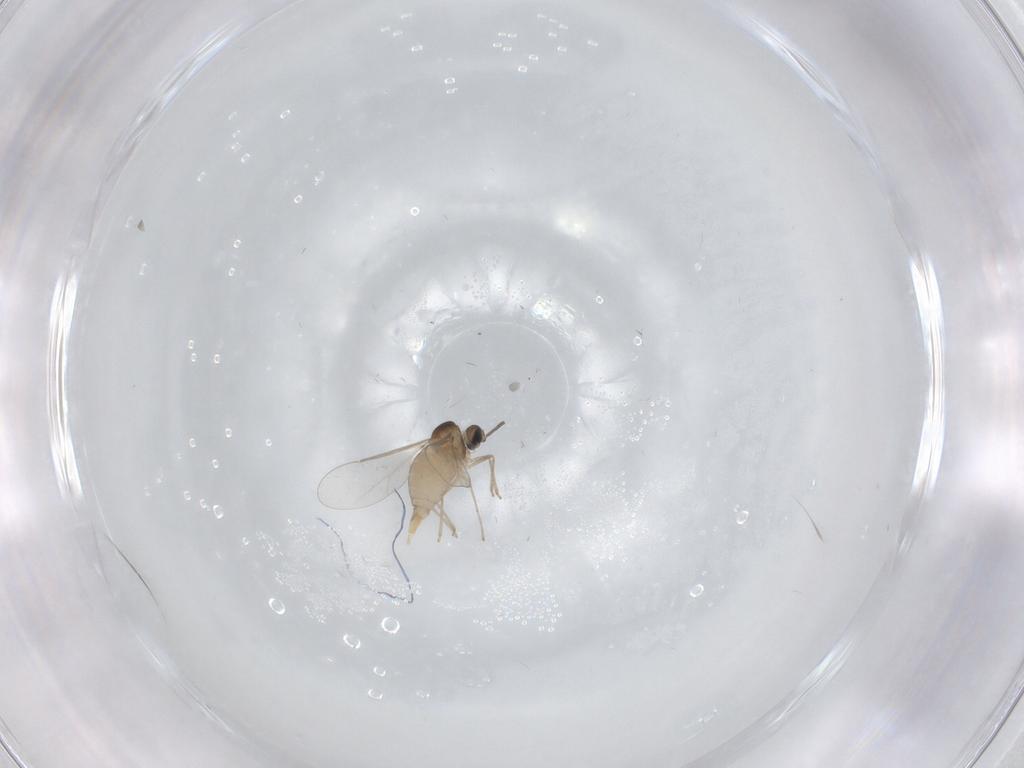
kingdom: Animalia
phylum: Arthropoda
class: Insecta
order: Diptera
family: Cecidomyiidae
